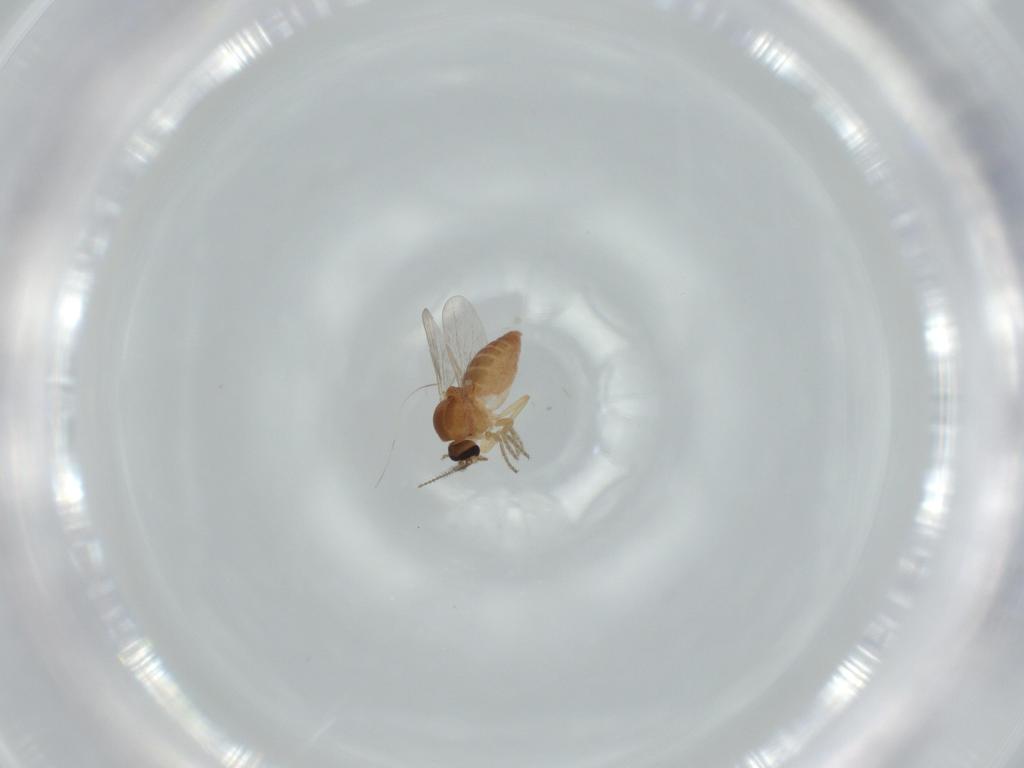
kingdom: Animalia
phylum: Arthropoda
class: Insecta
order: Diptera
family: Ceratopogonidae
